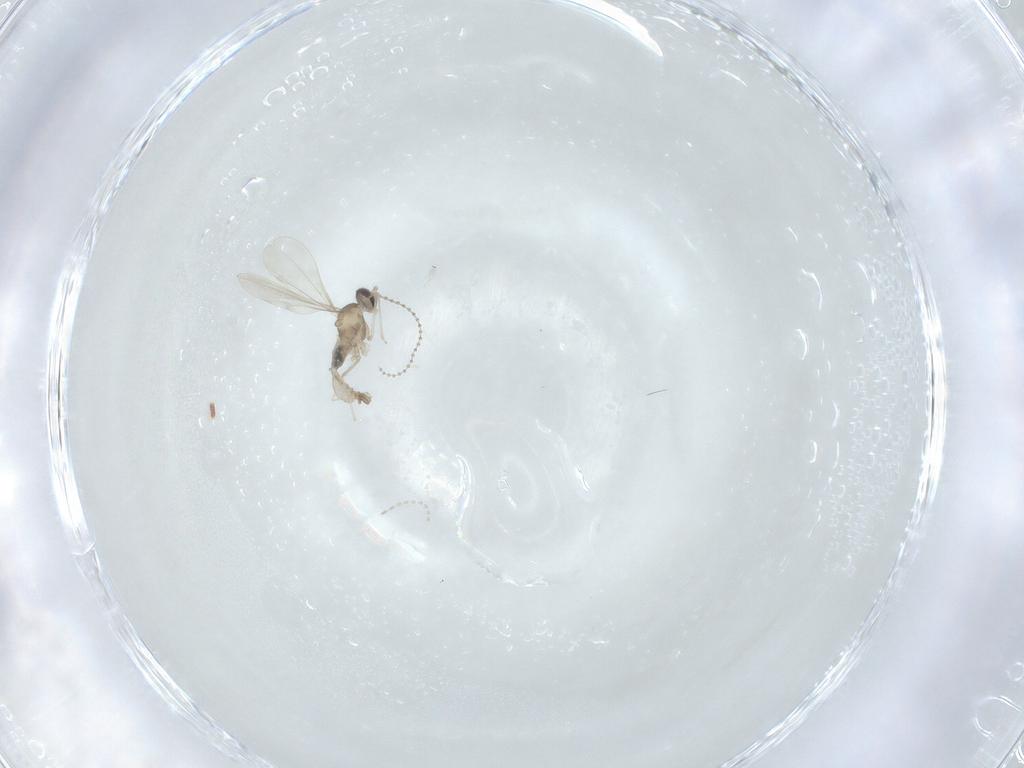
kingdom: Animalia
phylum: Arthropoda
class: Insecta
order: Diptera
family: Cecidomyiidae
